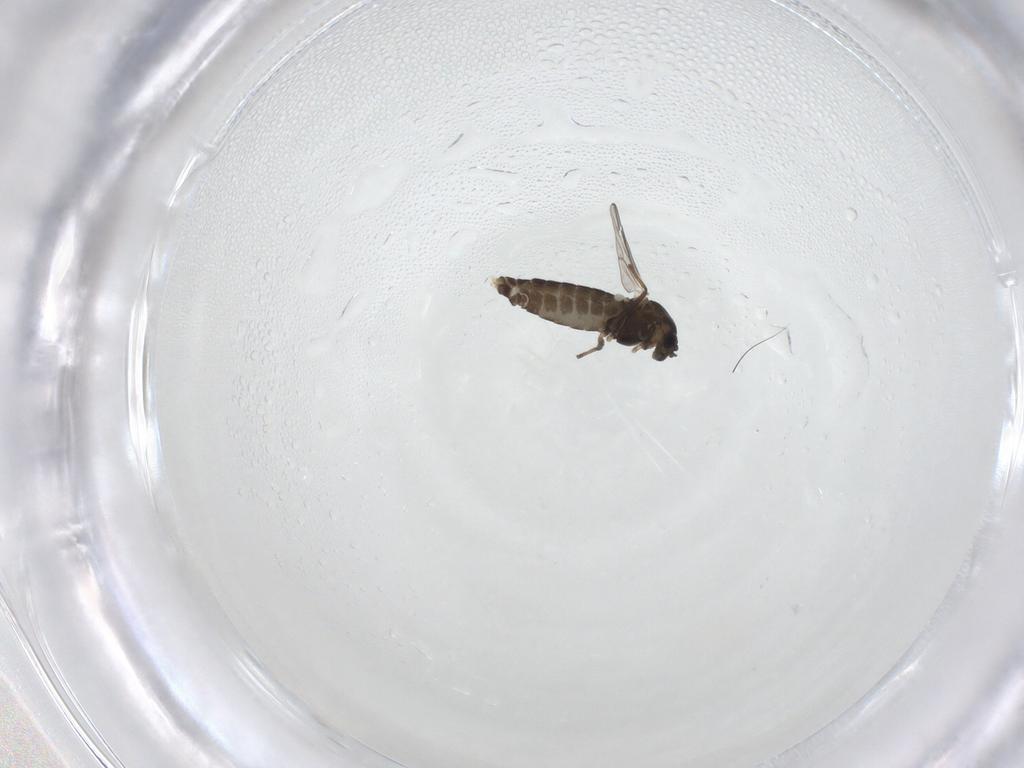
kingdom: Animalia
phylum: Arthropoda
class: Insecta
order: Diptera
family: Chironomidae
